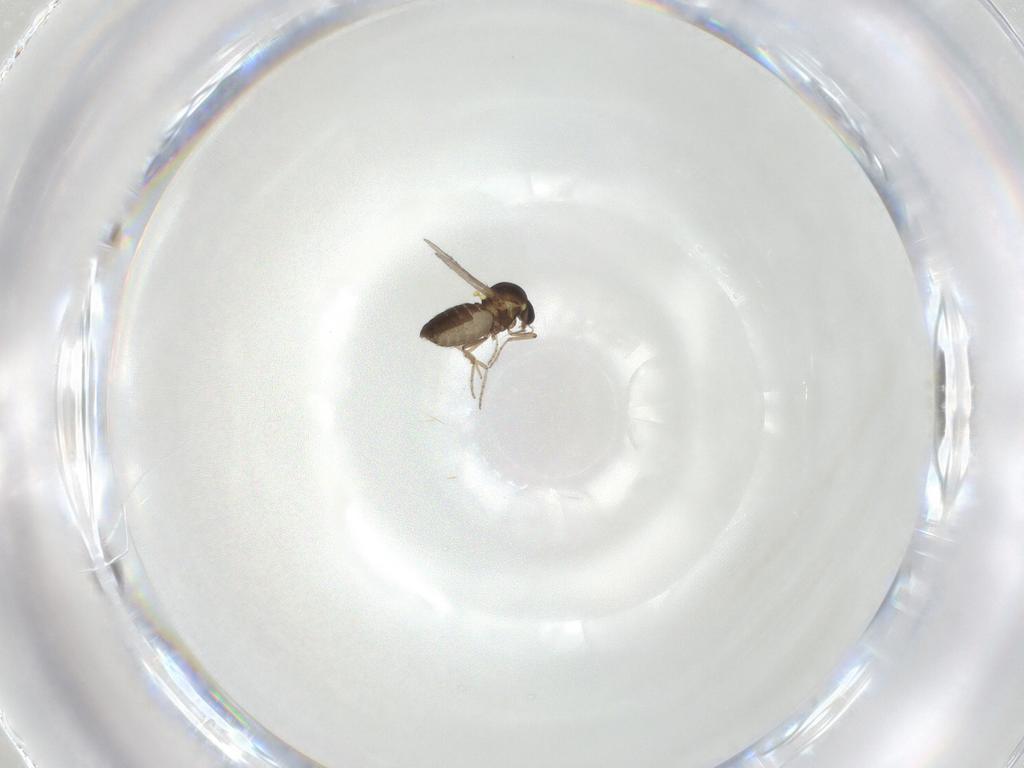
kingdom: Animalia
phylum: Arthropoda
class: Insecta
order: Diptera
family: Ceratopogonidae
